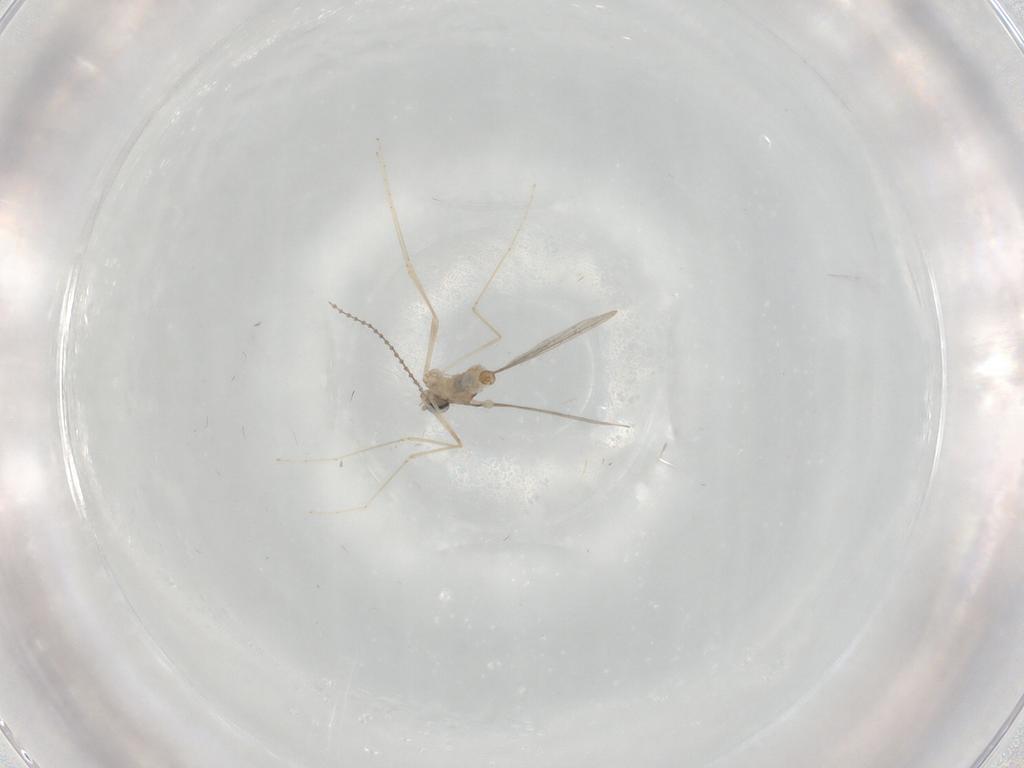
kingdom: Animalia
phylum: Arthropoda
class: Insecta
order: Diptera
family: Cecidomyiidae
